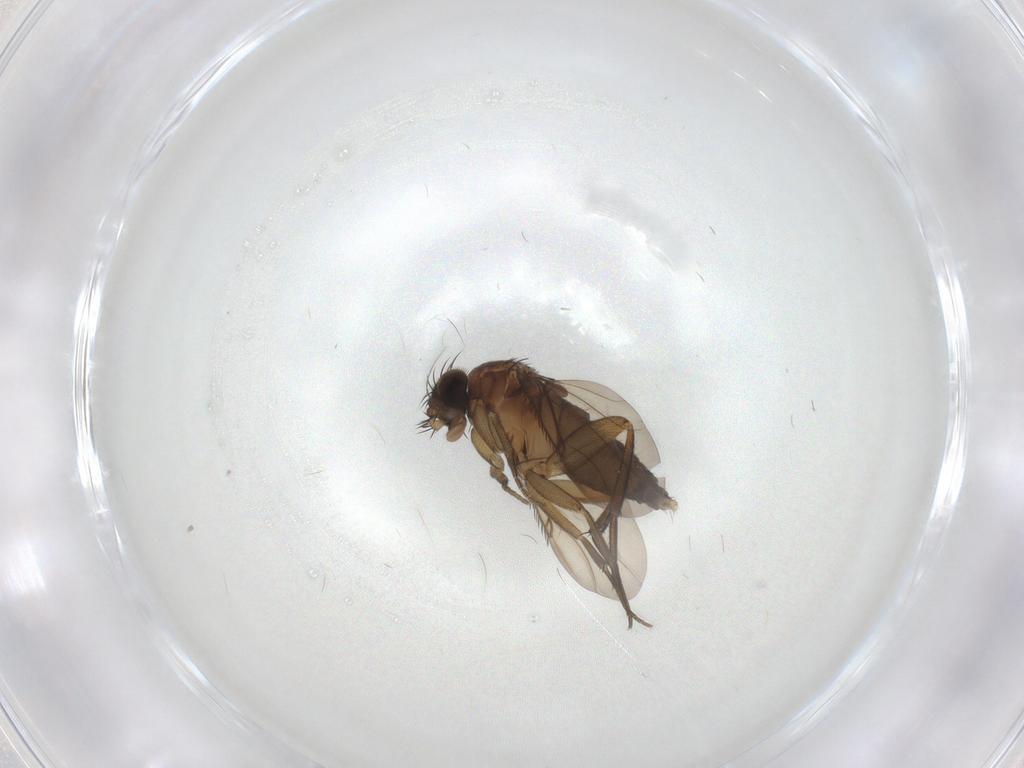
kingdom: Animalia
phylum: Arthropoda
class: Insecta
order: Diptera
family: Phoridae
